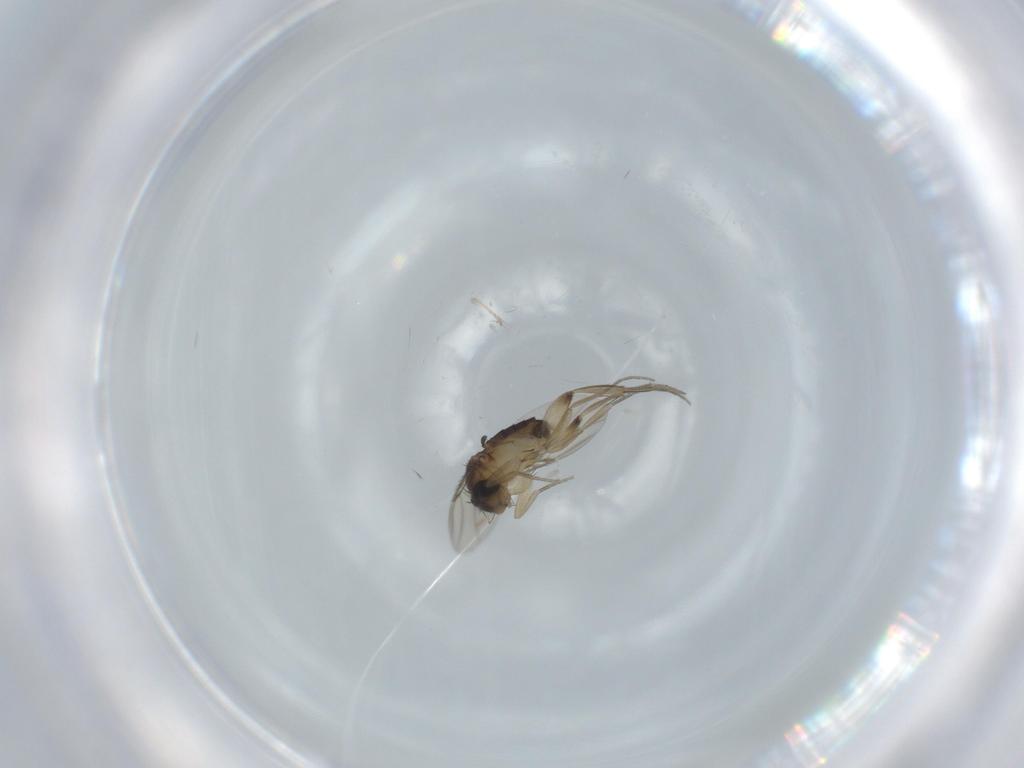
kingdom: Animalia
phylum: Arthropoda
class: Insecta
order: Diptera
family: Phoridae
